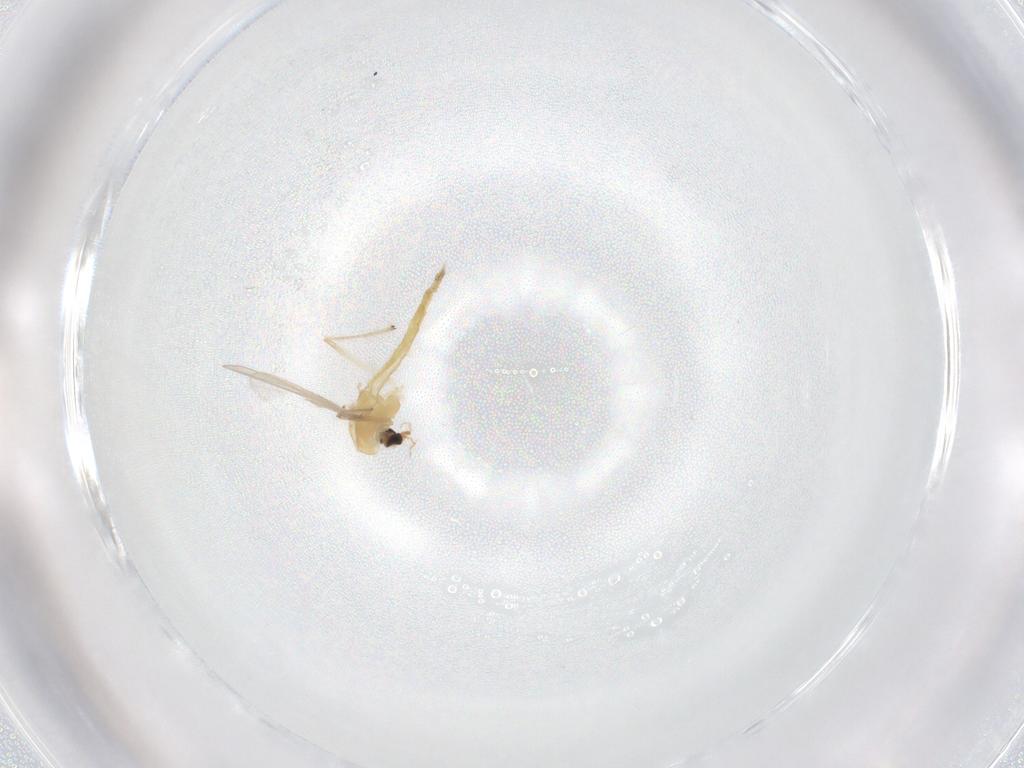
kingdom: Animalia
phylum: Arthropoda
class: Insecta
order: Diptera
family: Chironomidae
